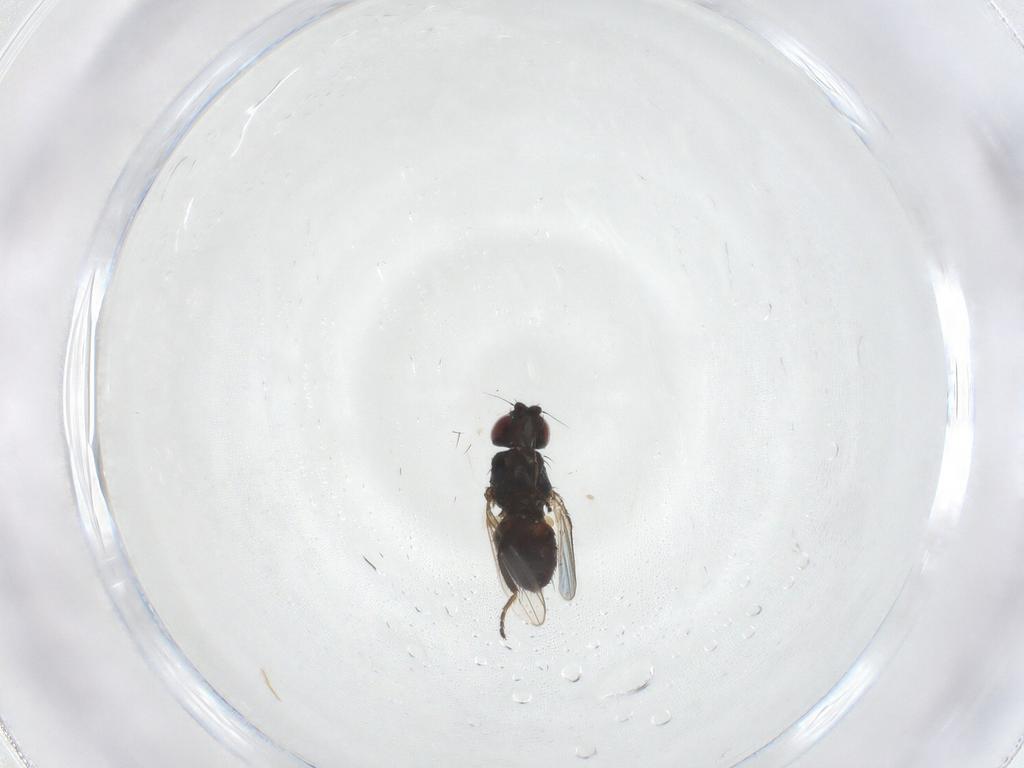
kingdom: Animalia
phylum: Arthropoda
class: Insecta
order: Diptera
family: Milichiidae
